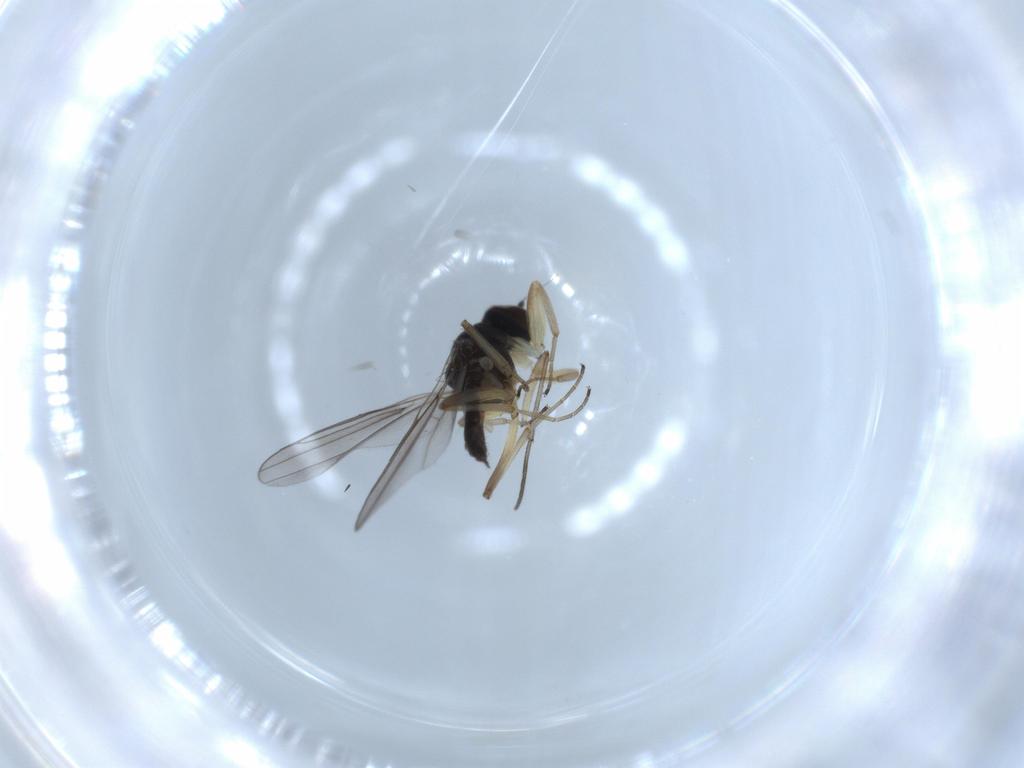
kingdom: Animalia
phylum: Arthropoda
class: Insecta
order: Diptera
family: Hybotidae
